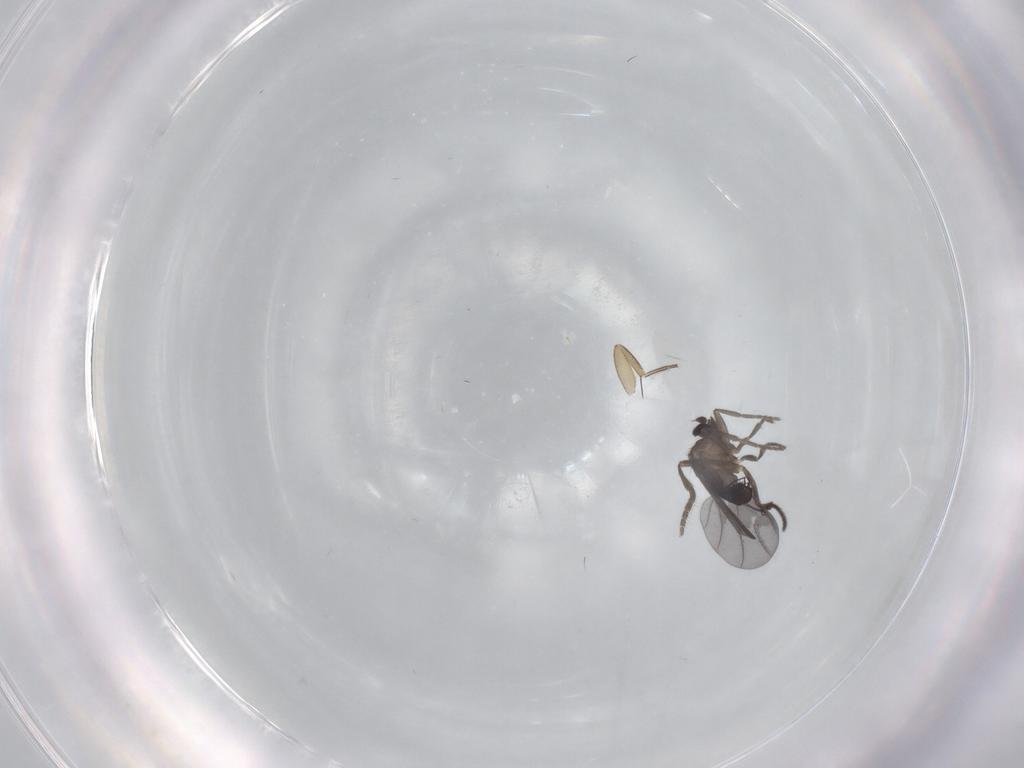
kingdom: Animalia
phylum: Arthropoda
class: Insecta
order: Diptera
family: Phoridae
